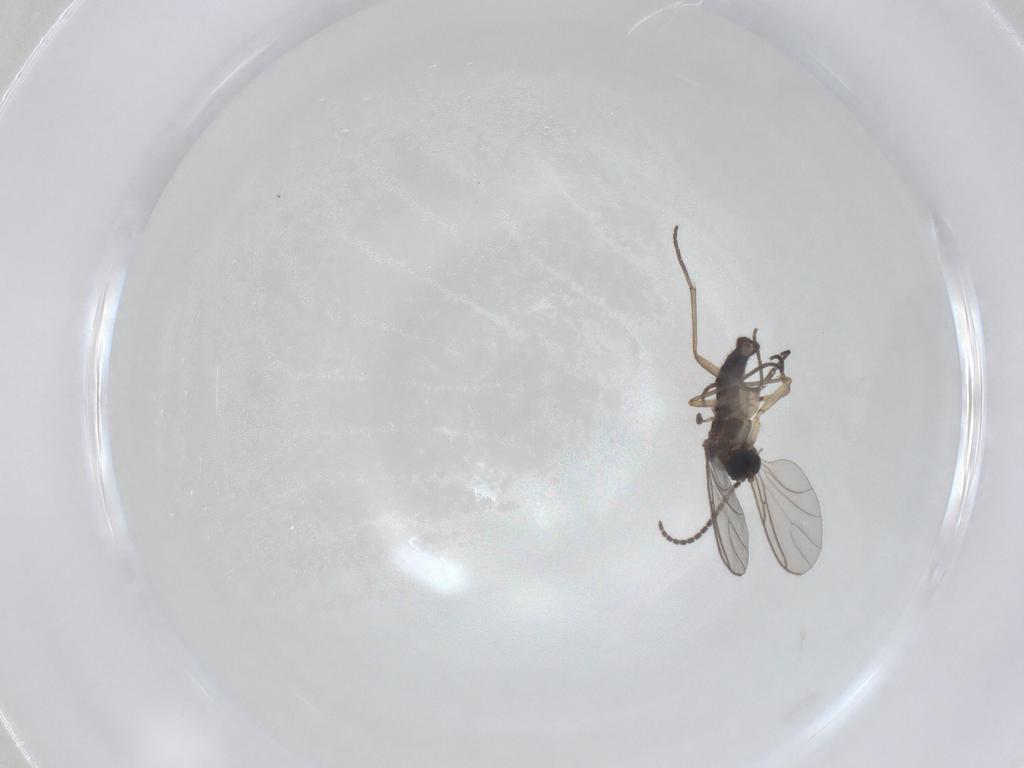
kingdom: Animalia
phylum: Arthropoda
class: Insecta
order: Diptera
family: Sciaridae
